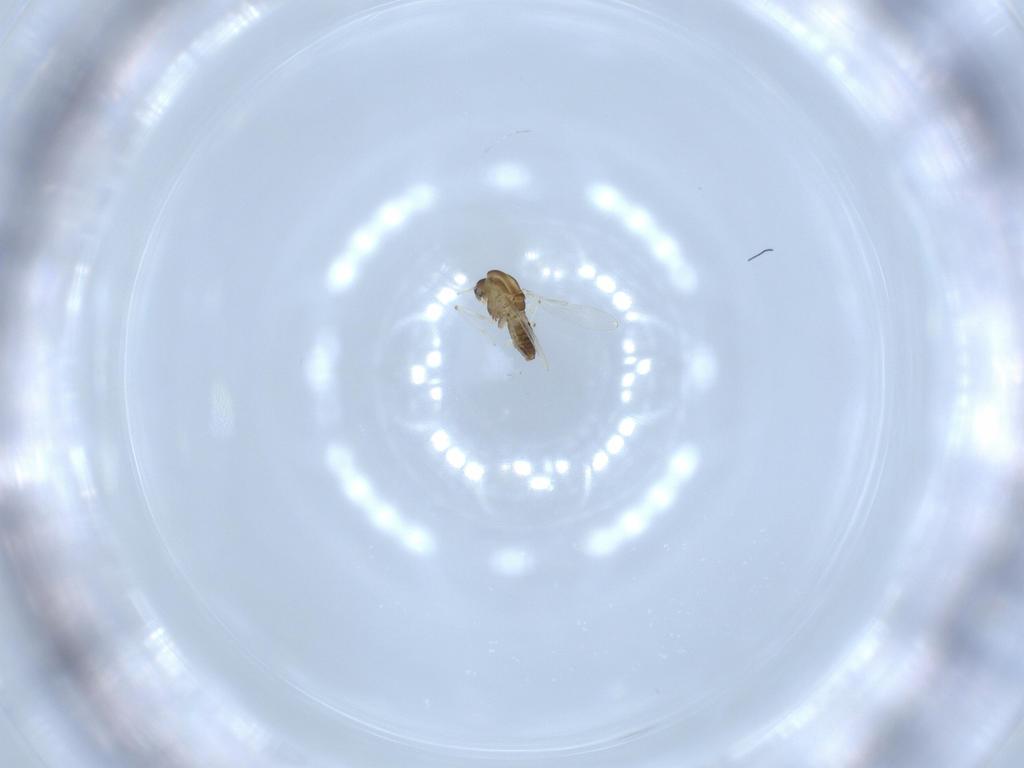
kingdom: Animalia
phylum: Arthropoda
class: Insecta
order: Diptera
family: Chironomidae
